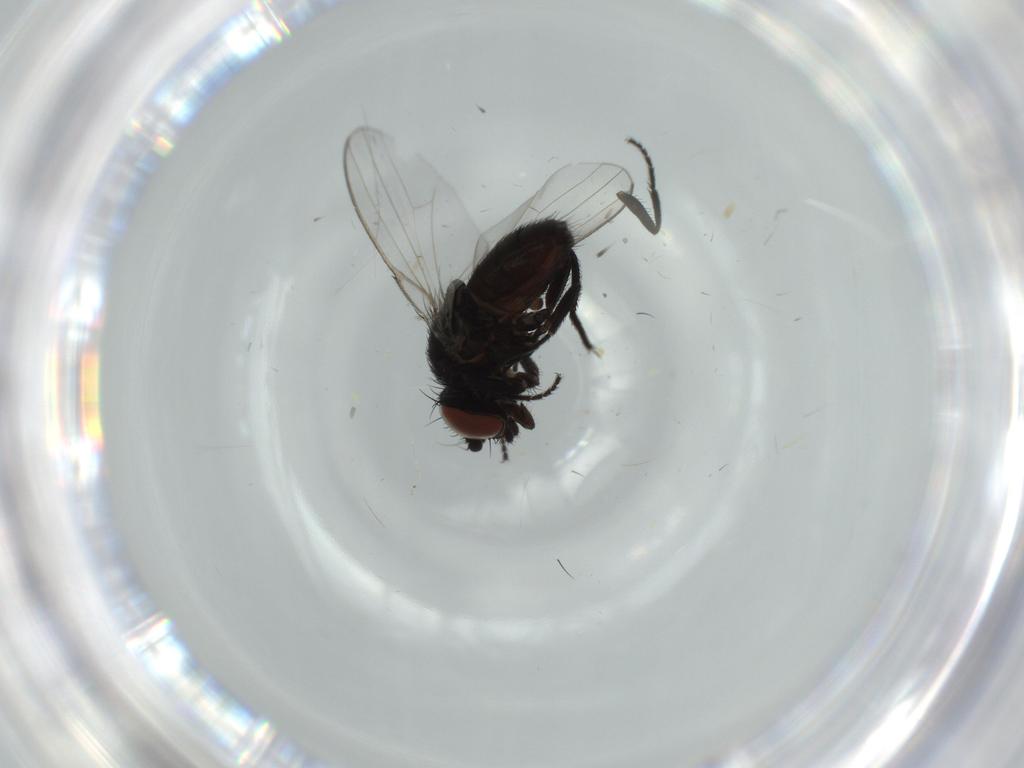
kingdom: Animalia
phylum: Arthropoda
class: Insecta
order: Diptera
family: Milichiidae
